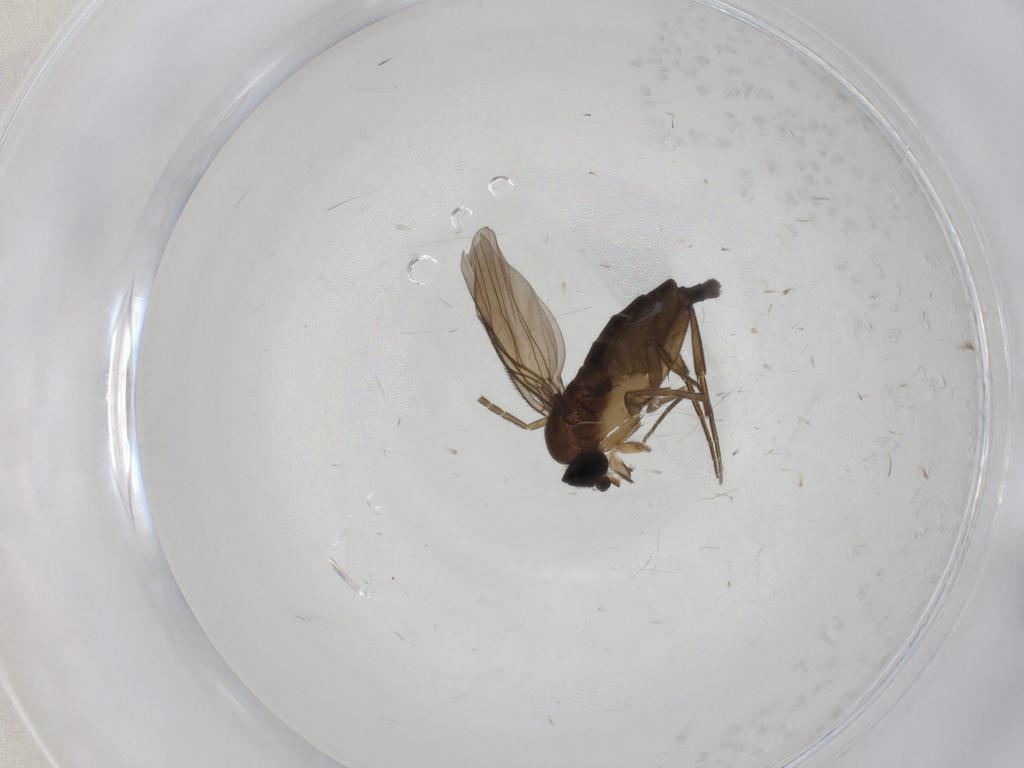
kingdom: Animalia
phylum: Arthropoda
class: Insecta
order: Diptera
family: Phoridae
